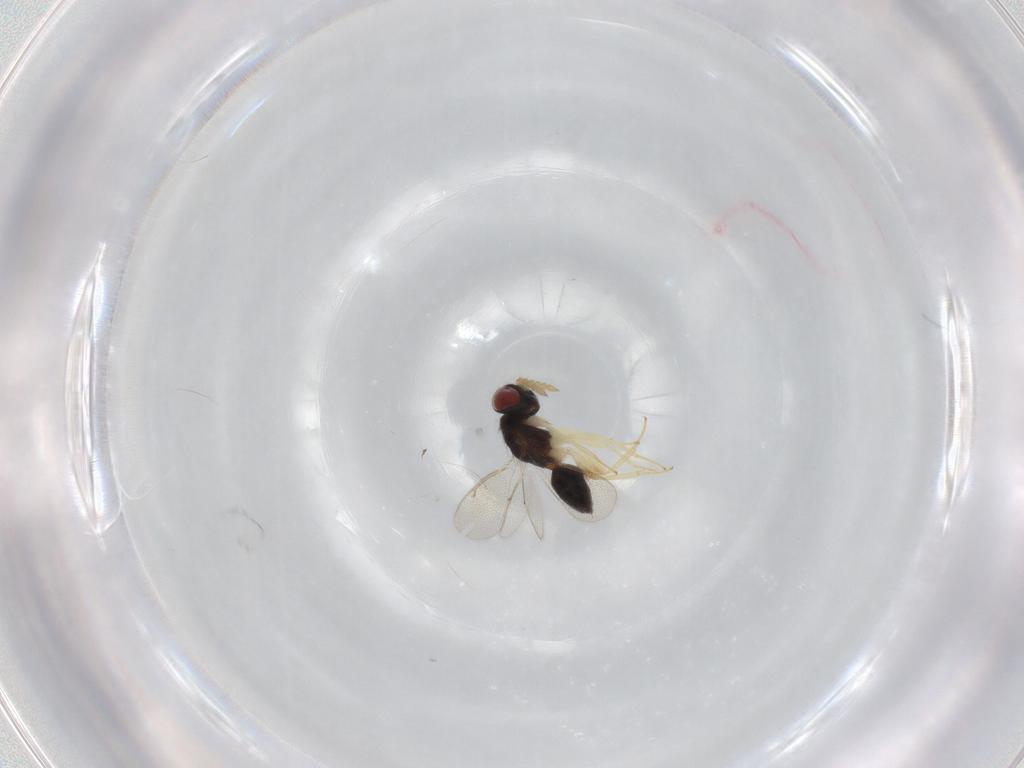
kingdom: Animalia
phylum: Arthropoda
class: Insecta
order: Hymenoptera
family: Eulophidae
